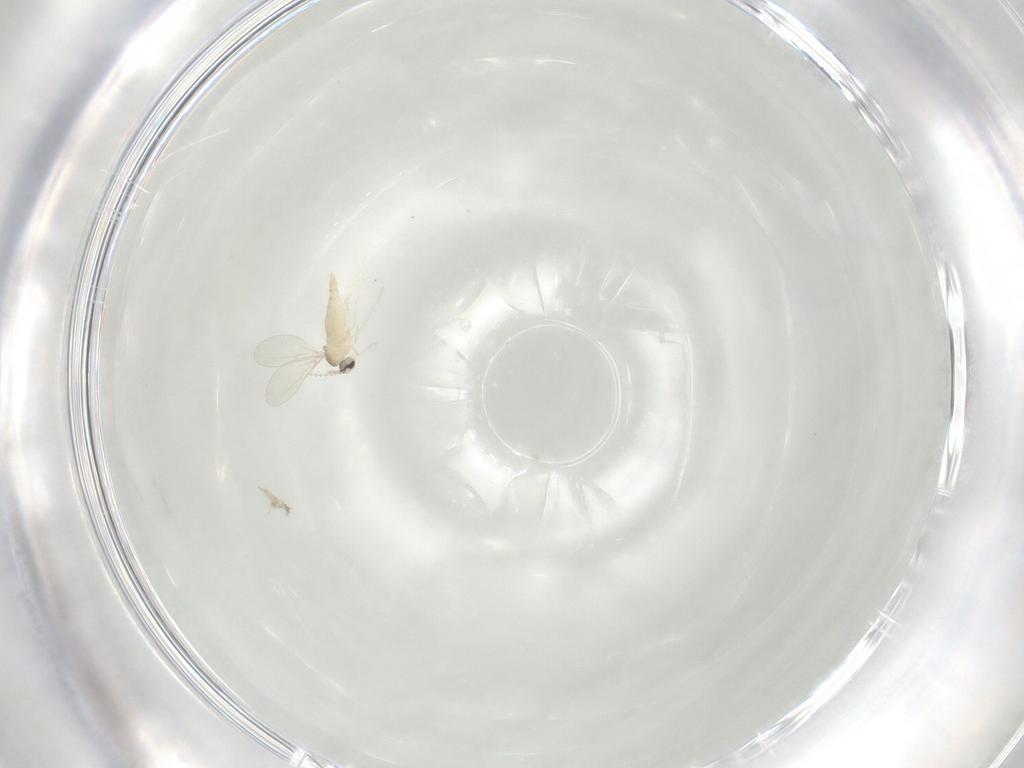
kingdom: Animalia
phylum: Arthropoda
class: Insecta
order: Diptera
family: Cecidomyiidae
